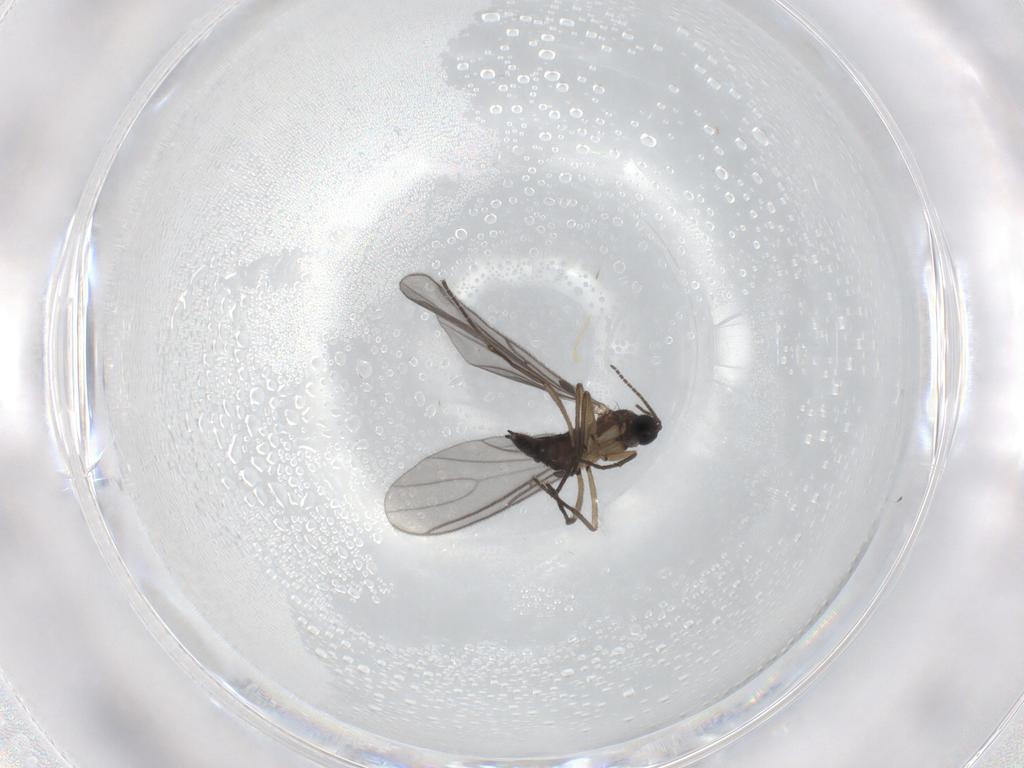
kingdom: Animalia
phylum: Arthropoda
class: Insecta
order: Diptera
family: Sciaridae
